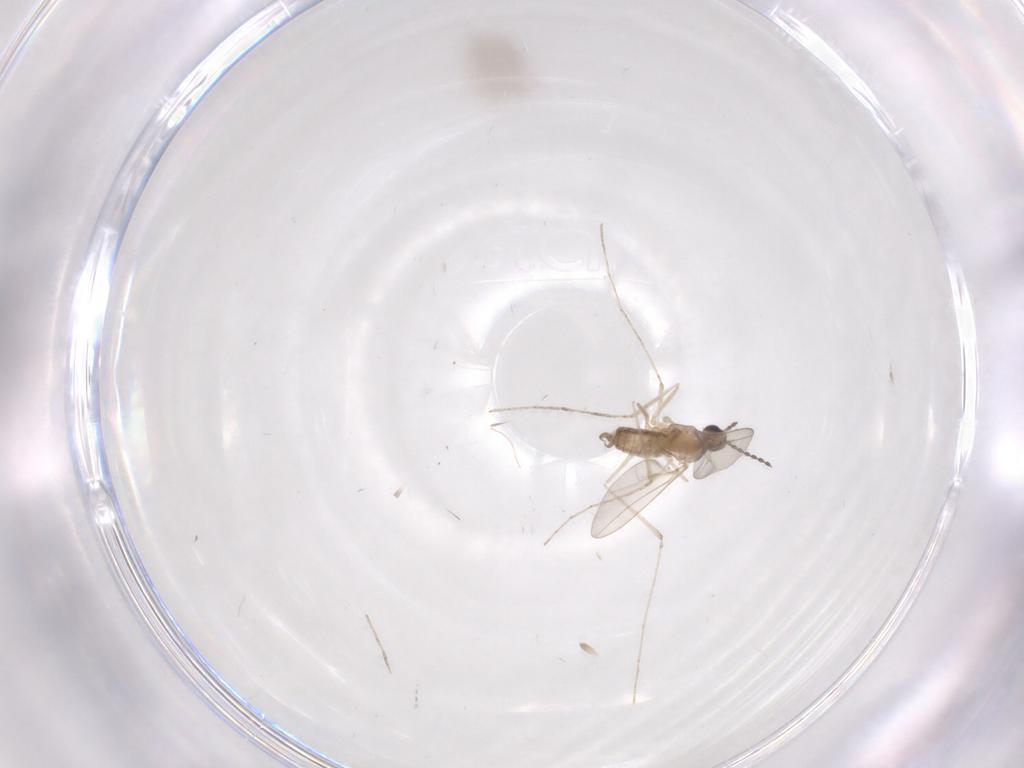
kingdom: Animalia
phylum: Arthropoda
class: Insecta
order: Diptera
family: Cecidomyiidae
